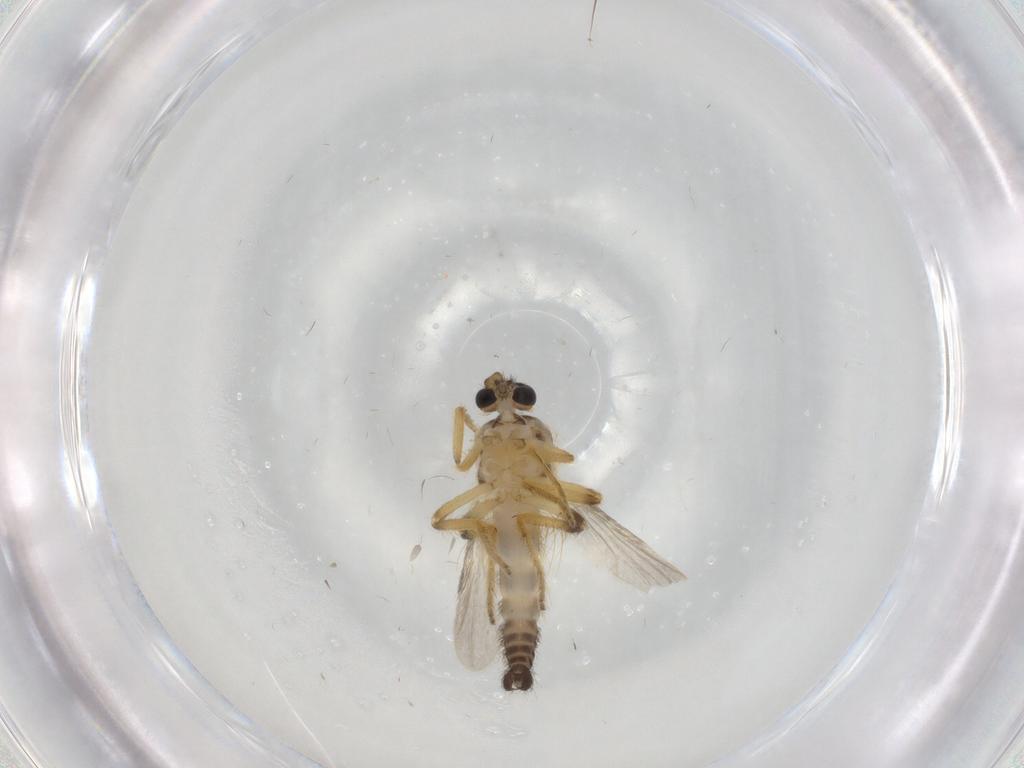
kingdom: Animalia
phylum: Arthropoda
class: Insecta
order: Diptera
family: Ceratopogonidae
